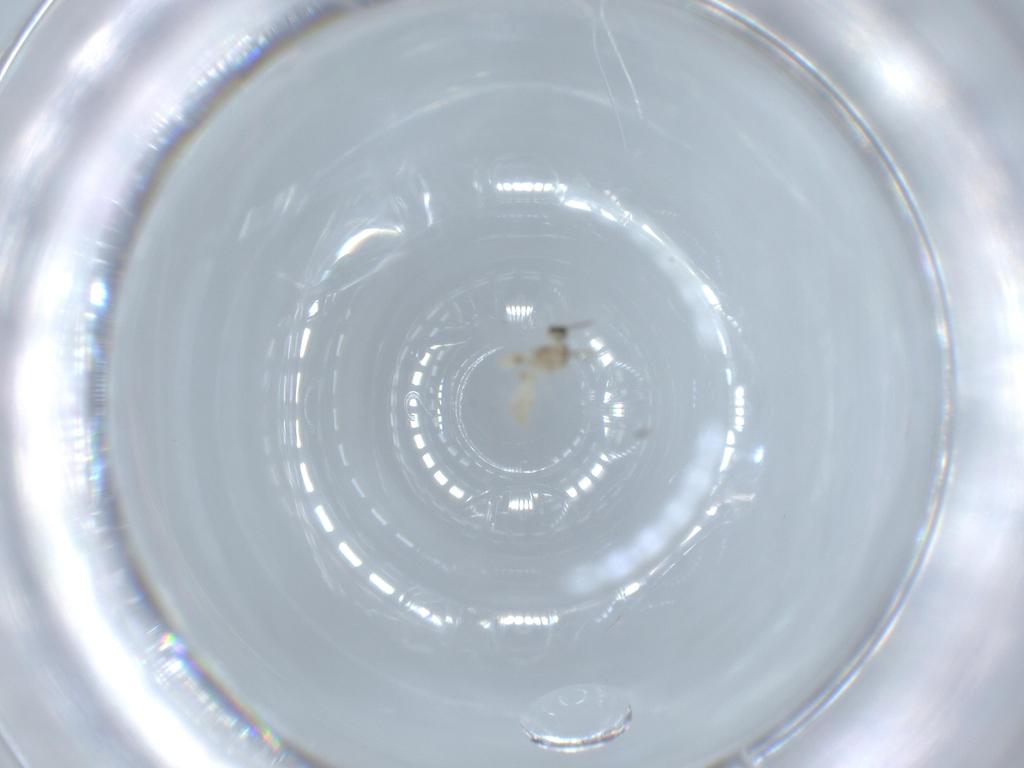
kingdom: Animalia
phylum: Arthropoda
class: Insecta
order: Diptera
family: Cecidomyiidae
